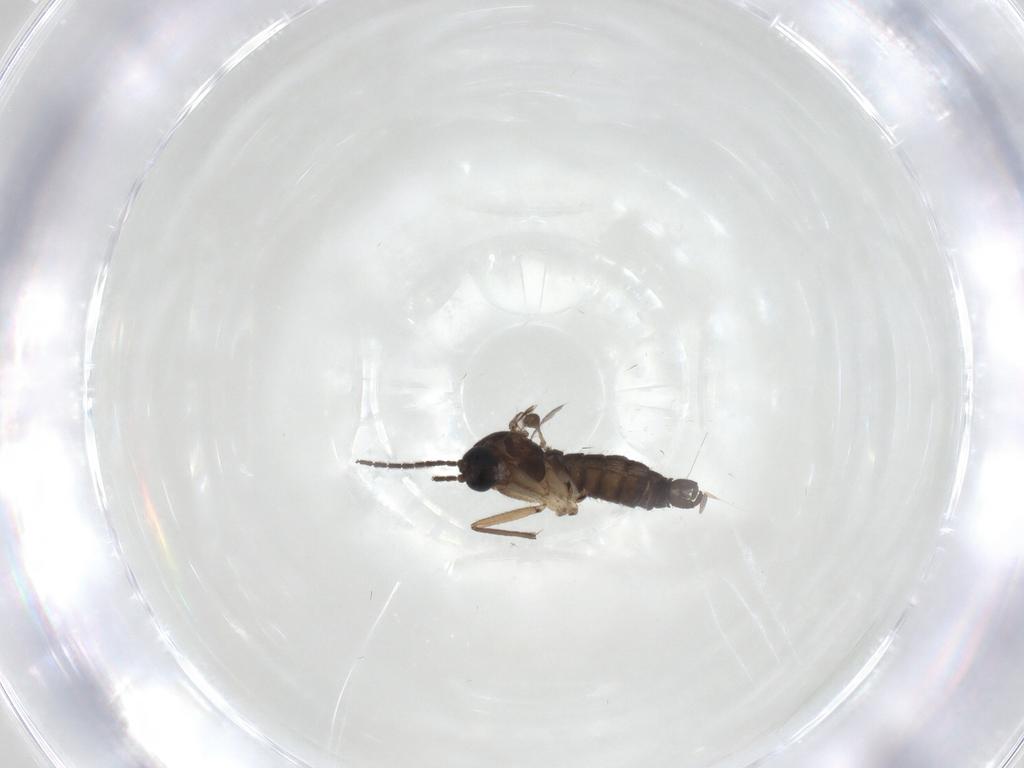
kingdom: Animalia
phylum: Arthropoda
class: Insecta
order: Diptera
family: Sciaridae
